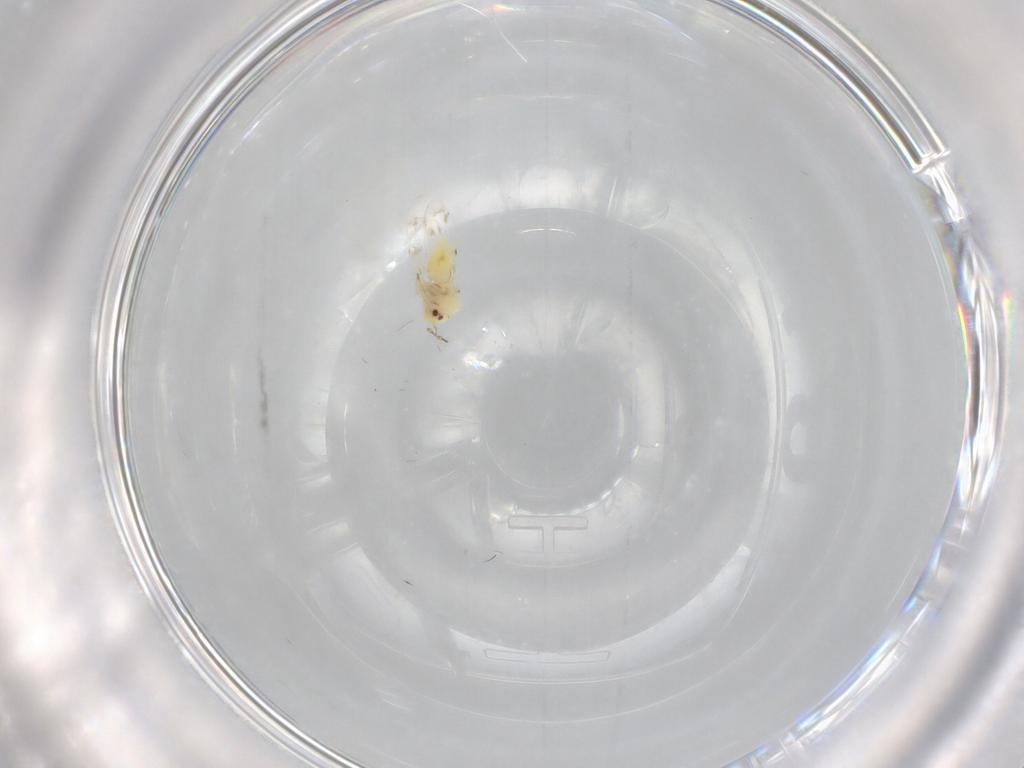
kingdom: Animalia
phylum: Arthropoda
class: Insecta
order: Hemiptera
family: Aleyrodidae
